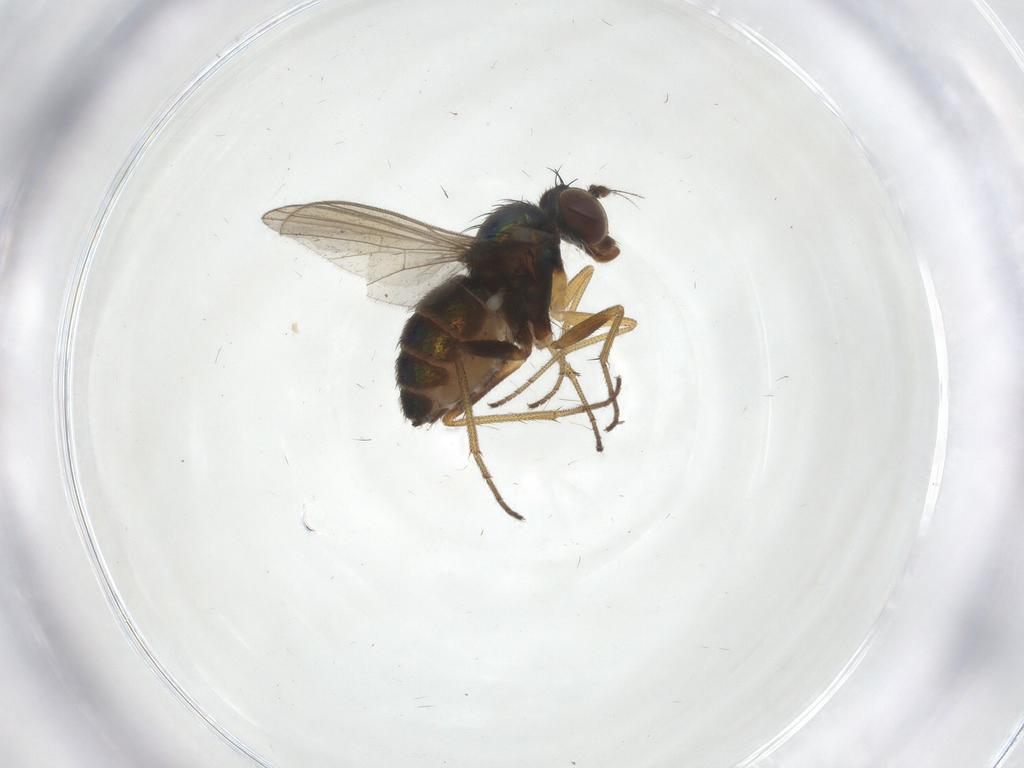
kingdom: Animalia
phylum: Arthropoda
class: Insecta
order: Diptera
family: Dolichopodidae
